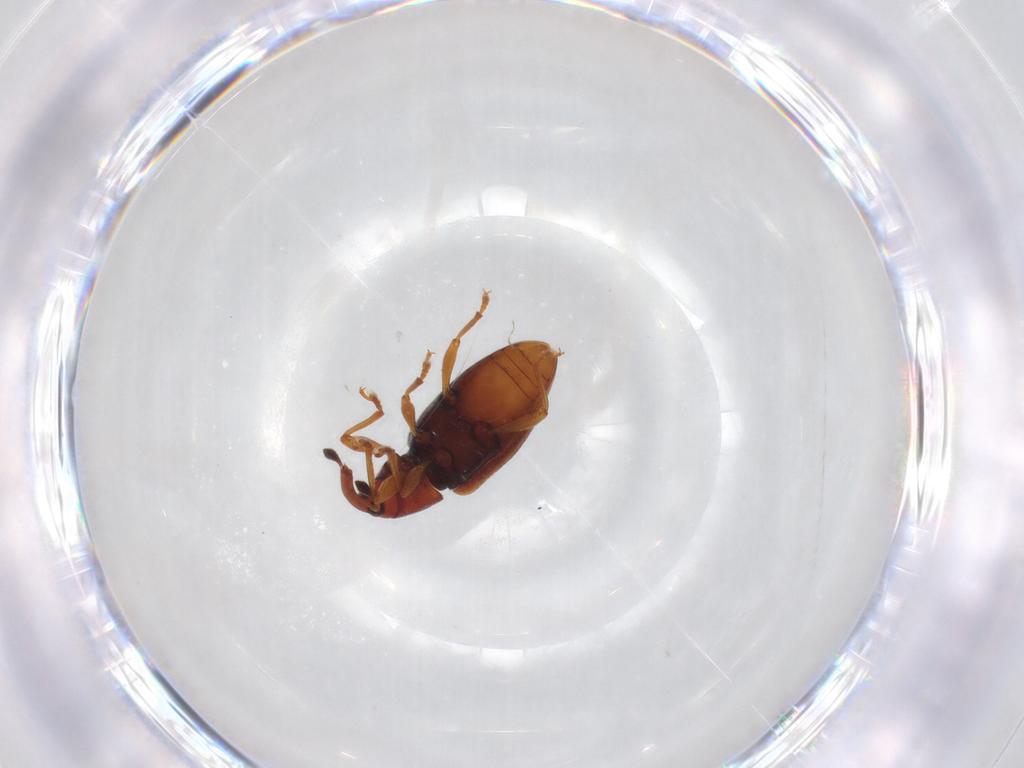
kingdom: Animalia
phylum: Arthropoda
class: Insecta
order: Coleoptera
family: Curculionidae
